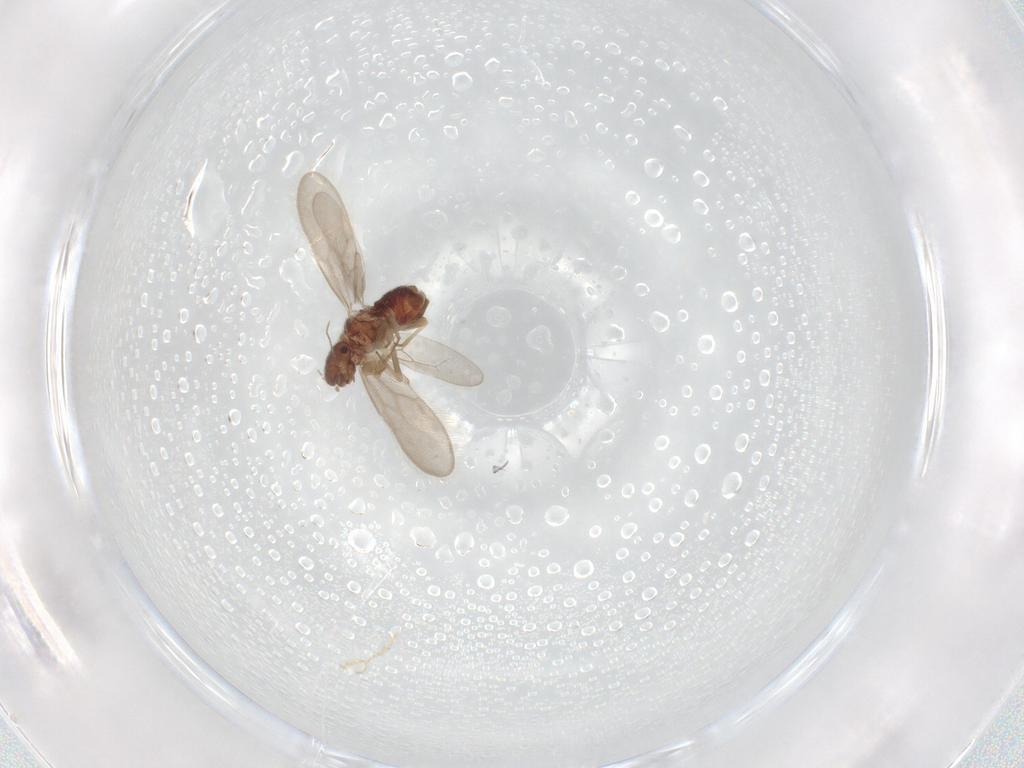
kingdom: Animalia
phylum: Arthropoda
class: Insecta
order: Psocodea
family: Archipsocidae
